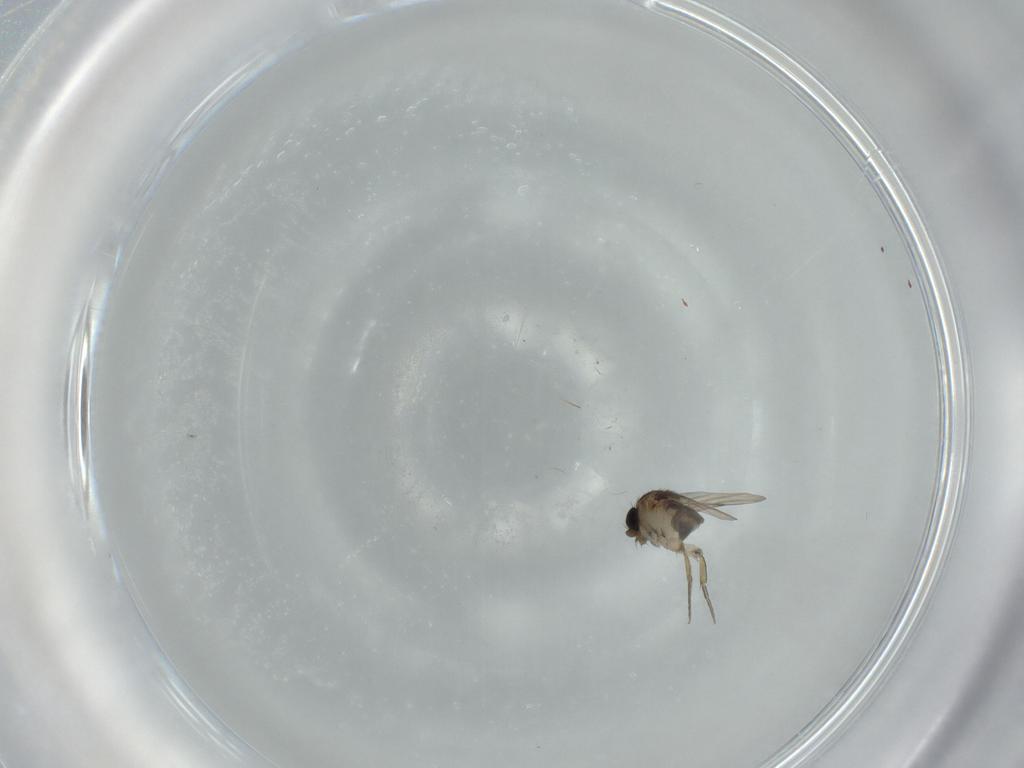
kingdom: Animalia
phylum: Arthropoda
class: Insecta
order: Diptera
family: Phoridae
